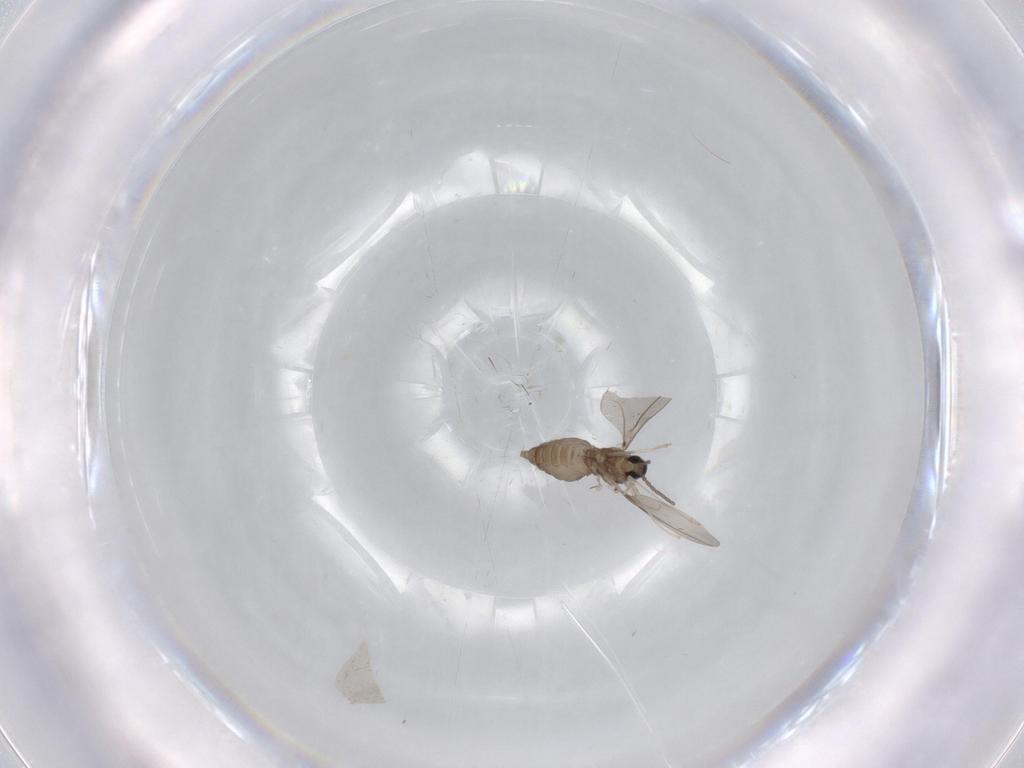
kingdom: Animalia
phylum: Arthropoda
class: Insecta
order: Diptera
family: Cecidomyiidae
